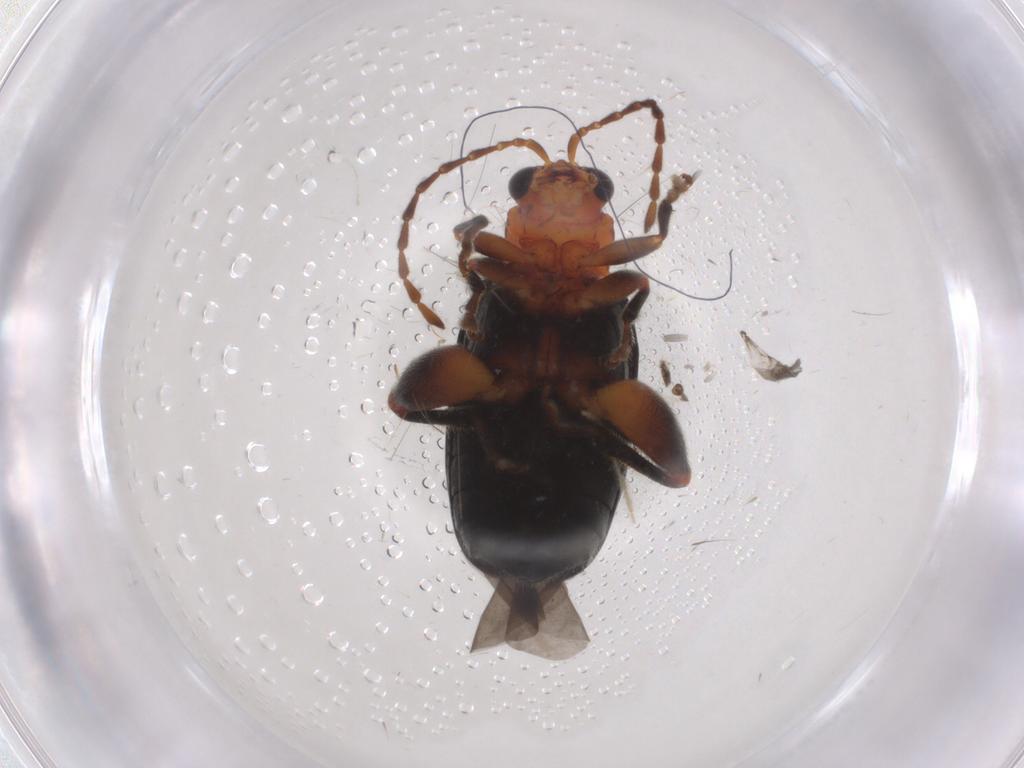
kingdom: Animalia
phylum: Arthropoda
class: Insecta
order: Coleoptera
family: Chrysomelidae
